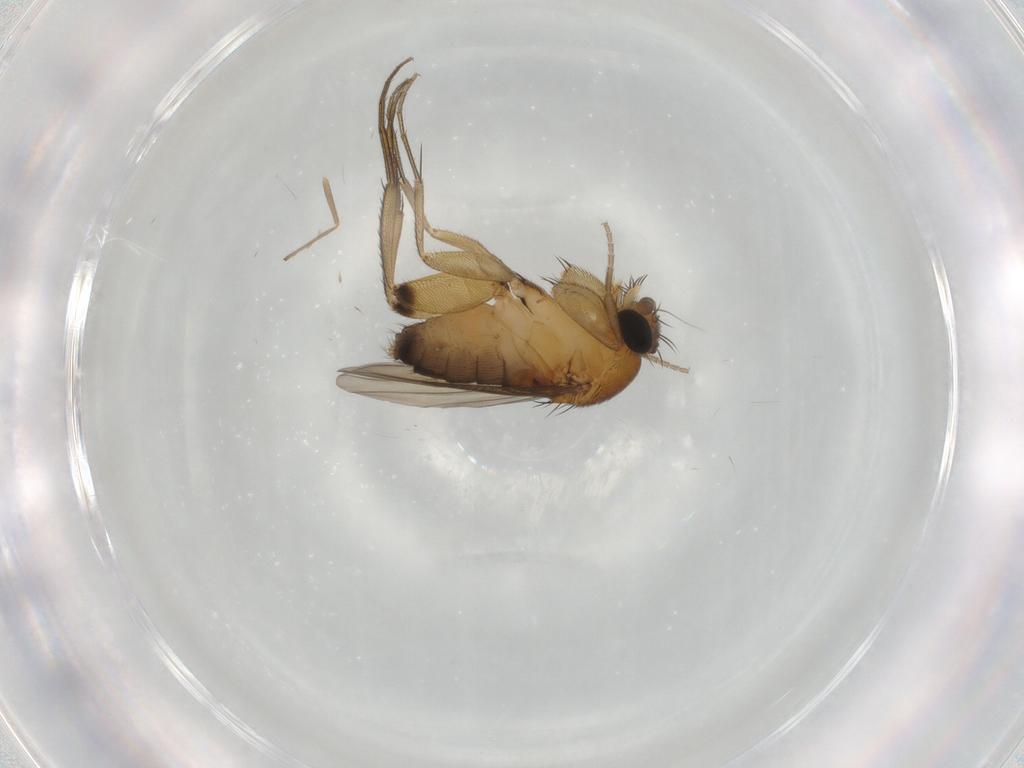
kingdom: Animalia
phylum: Arthropoda
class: Insecta
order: Diptera
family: Phoridae
